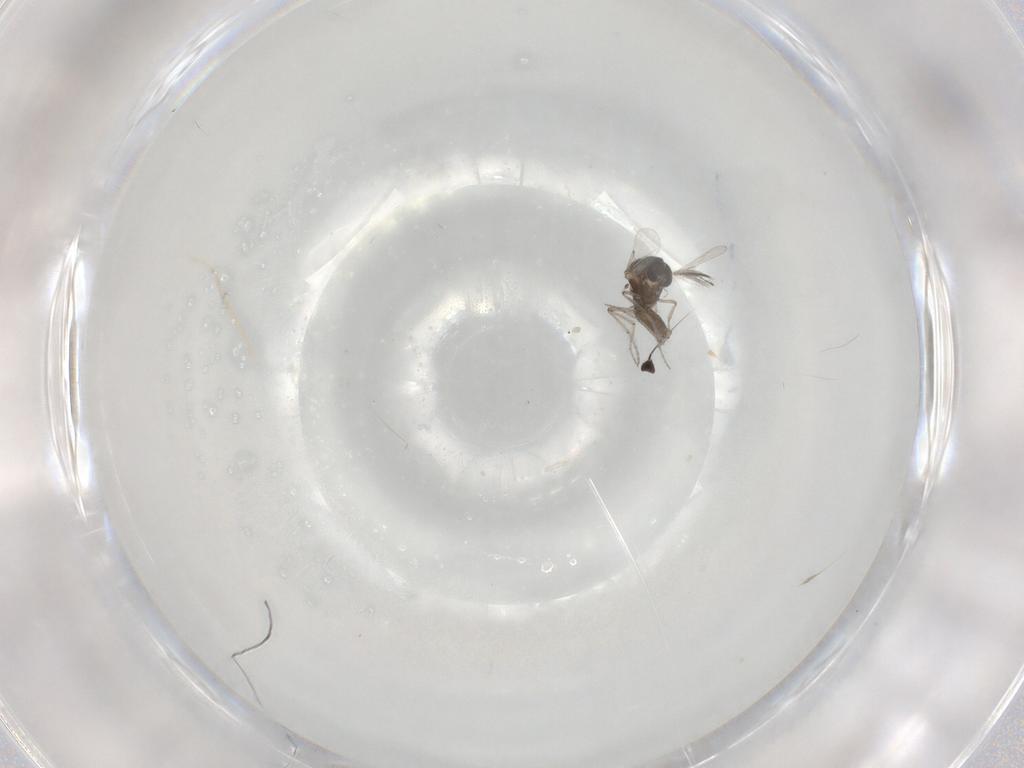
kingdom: Animalia
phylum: Arthropoda
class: Insecta
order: Diptera
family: Ceratopogonidae
